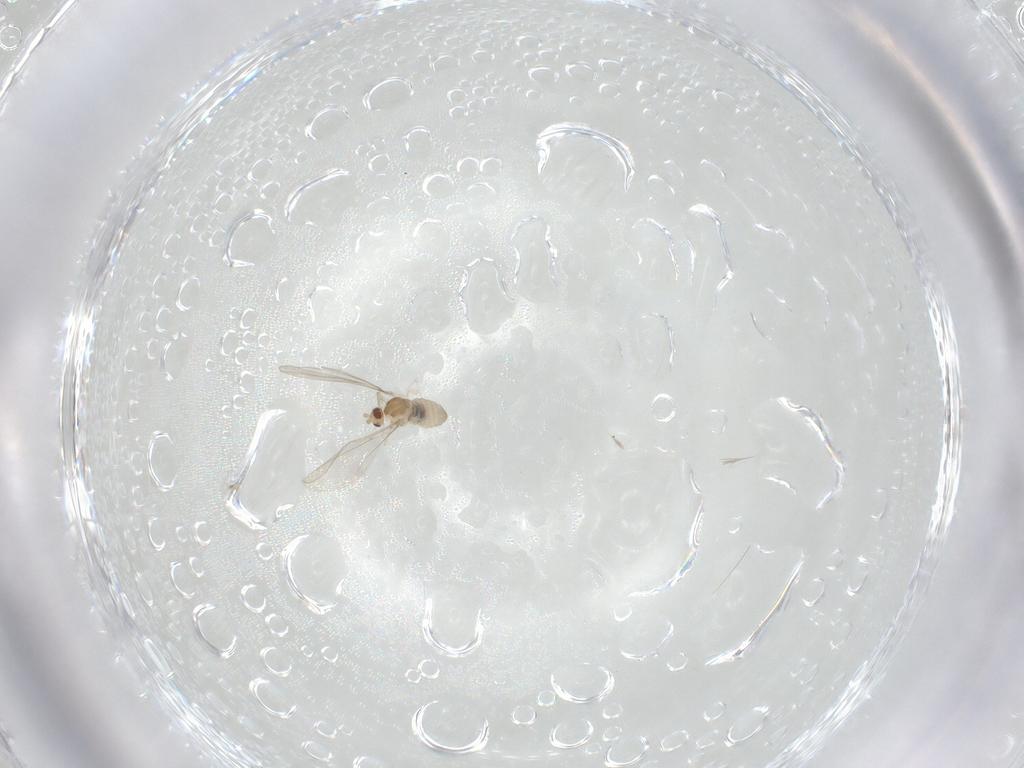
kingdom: Animalia
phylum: Arthropoda
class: Insecta
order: Diptera
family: Cecidomyiidae
